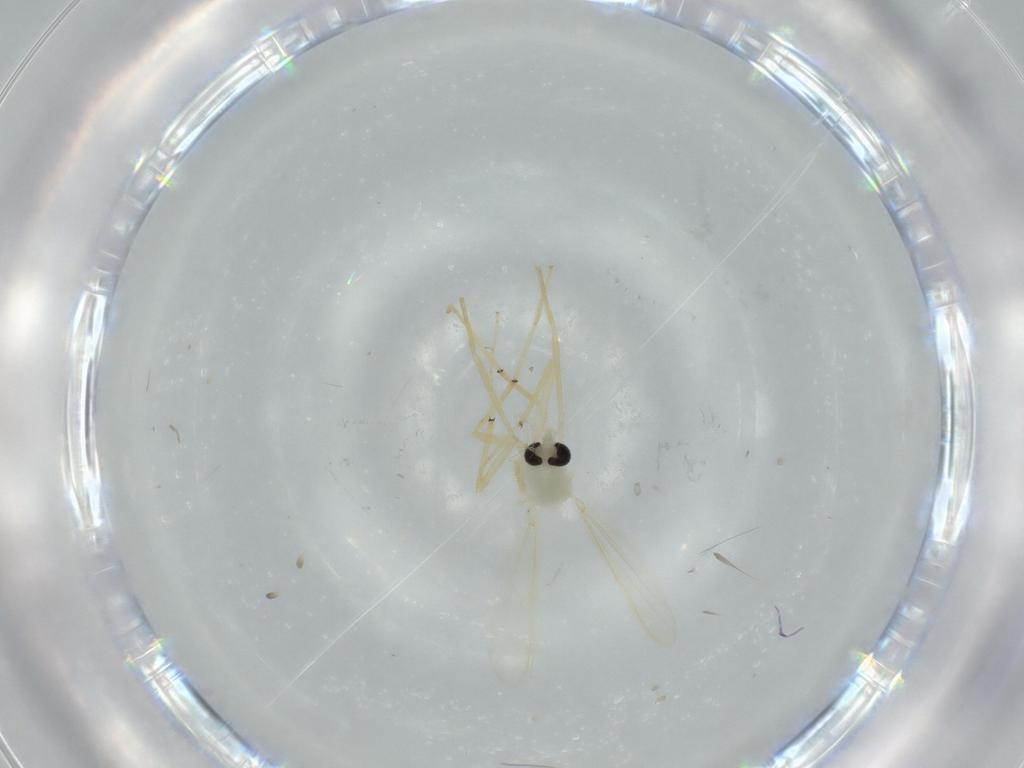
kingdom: Animalia
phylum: Arthropoda
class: Insecta
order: Diptera
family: Chironomidae
